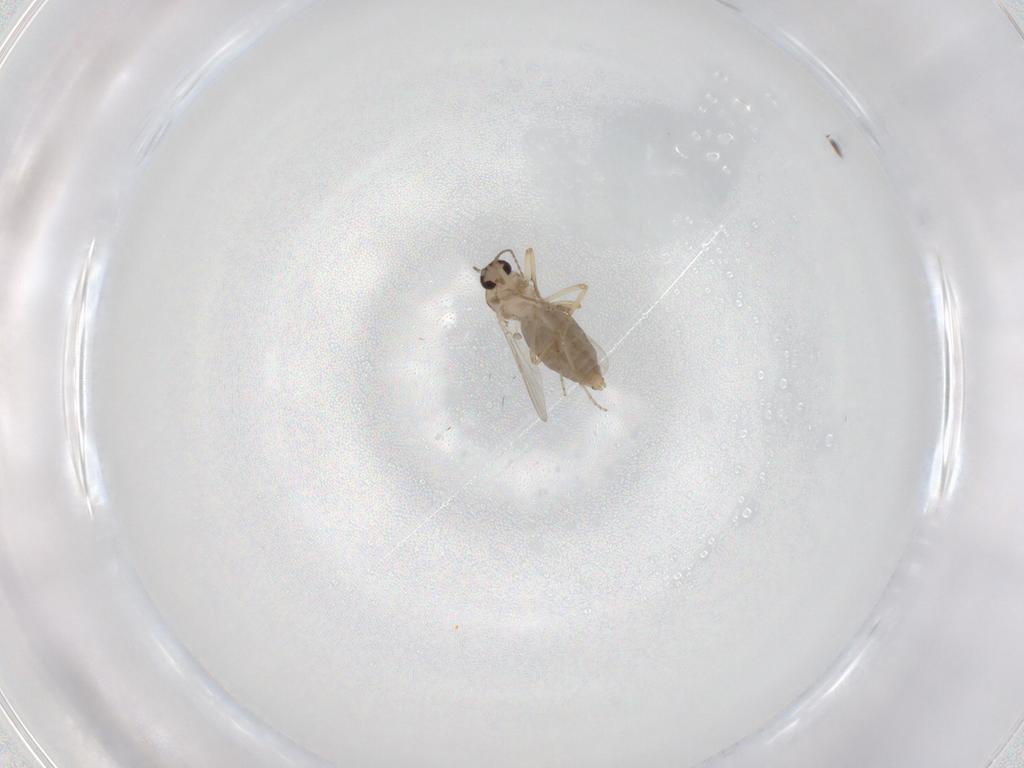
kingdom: Animalia
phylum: Arthropoda
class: Insecta
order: Diptera
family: Ceratopogonidae
